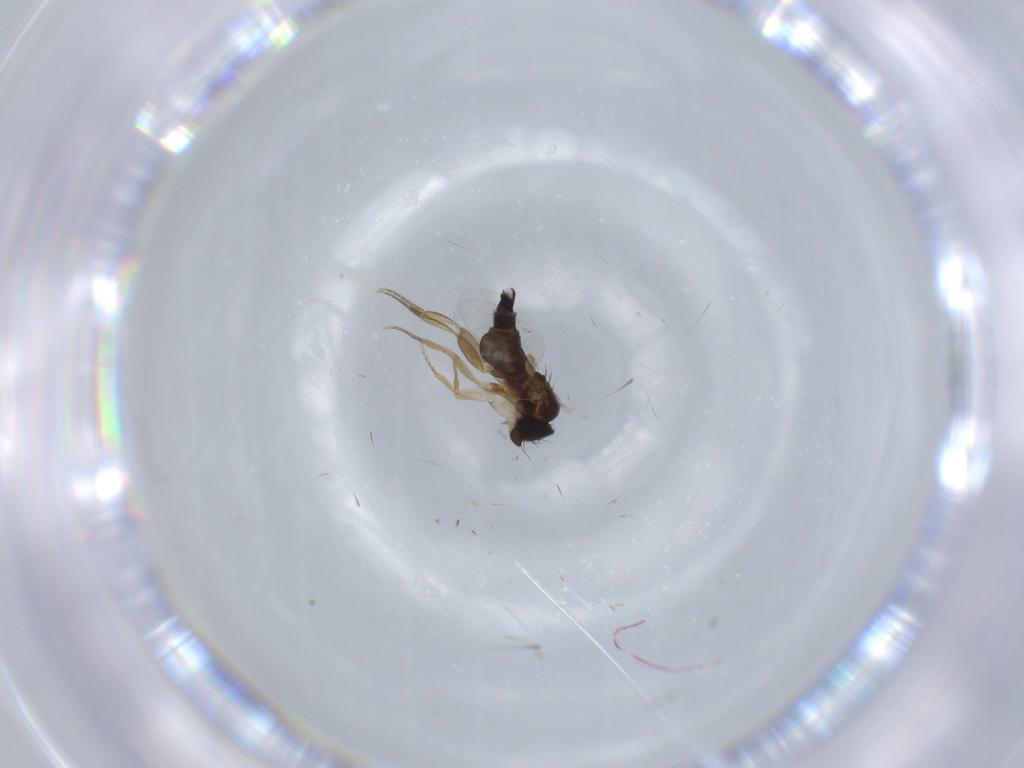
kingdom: Animalia
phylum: Arthropoda
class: Insecta
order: Diptera
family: Phoridae
